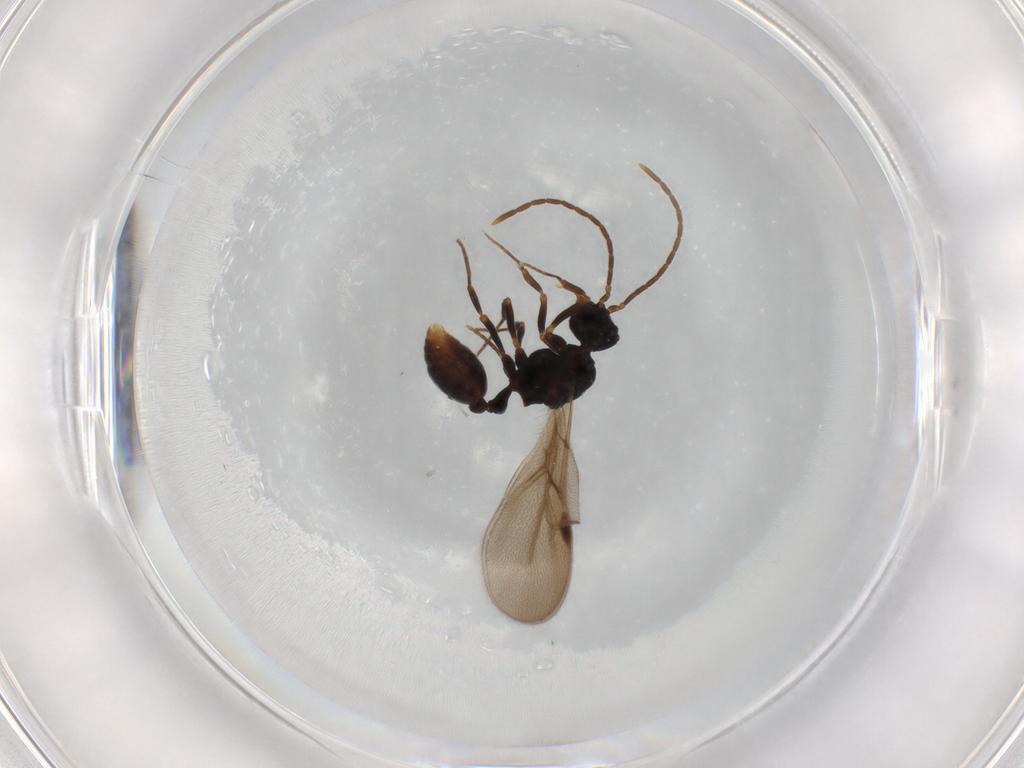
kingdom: Animalia
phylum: Arthropoda
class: Insecta
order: Hymenoptera
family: Formicidae
